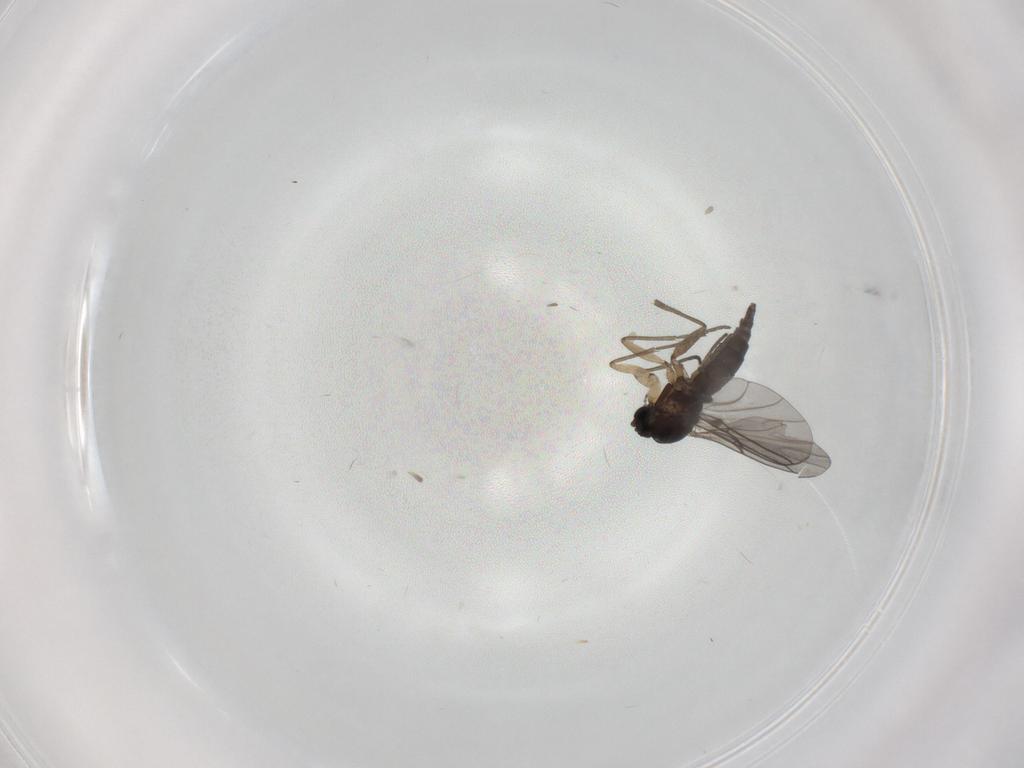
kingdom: Animalia
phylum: Arthropoda
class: Insecta
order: Diptera
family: Sciaridae
